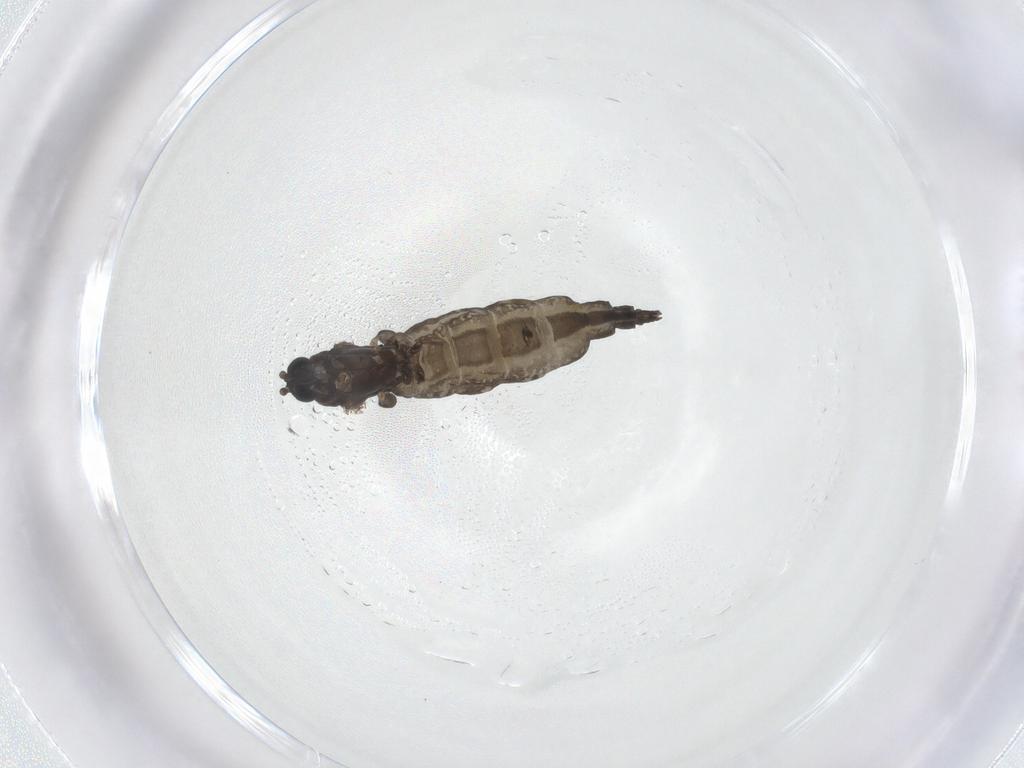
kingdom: Animalia
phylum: Arthropoda
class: Insecta
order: Diptera
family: Sciaridae
